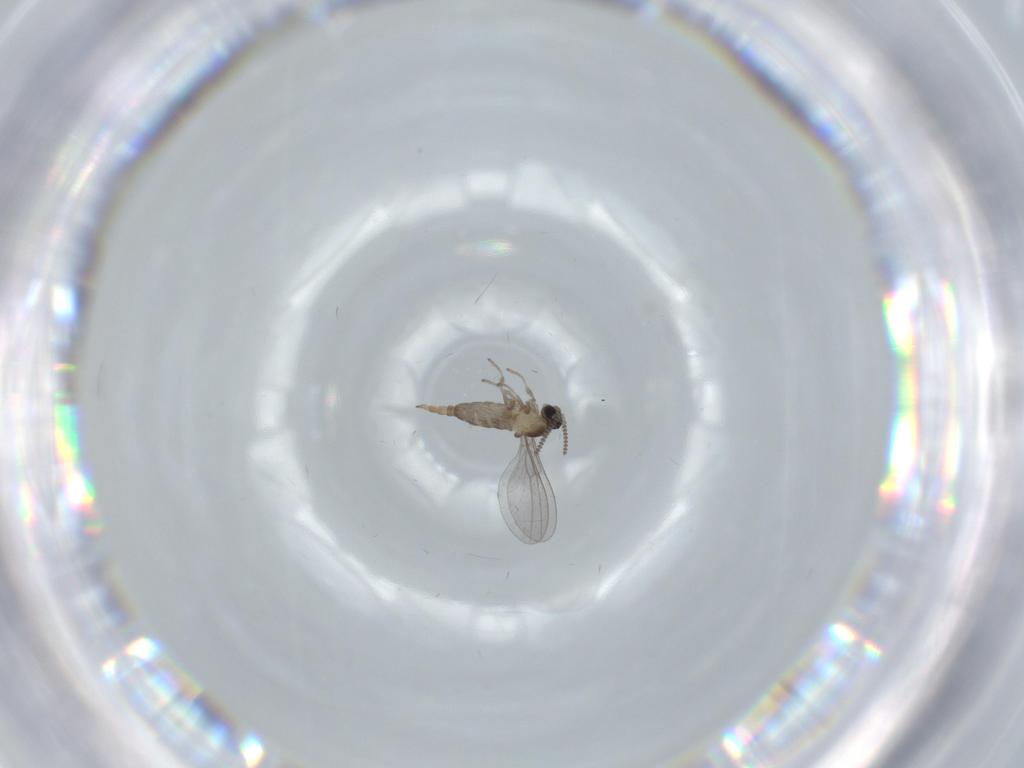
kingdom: Animalia
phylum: Arthropoda
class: Insecta
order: Diptera
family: Cecidomyiidae
